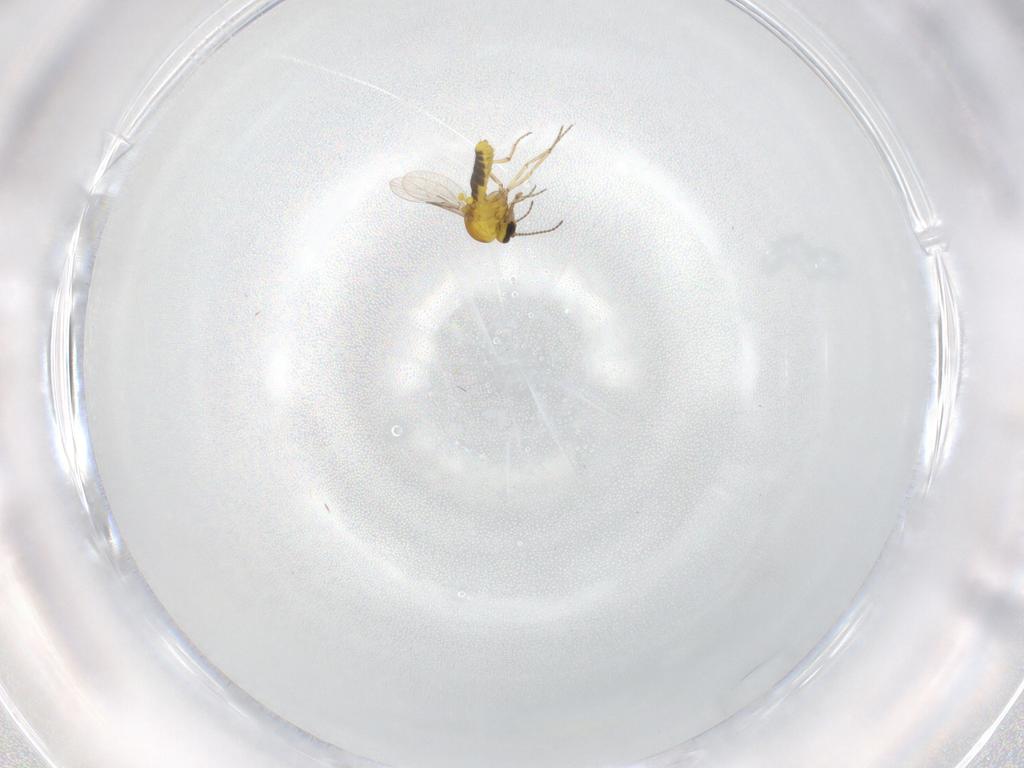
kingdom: Animalia
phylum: Arthropoda
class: Insecta
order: Diptera
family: Ceratopogonidae
